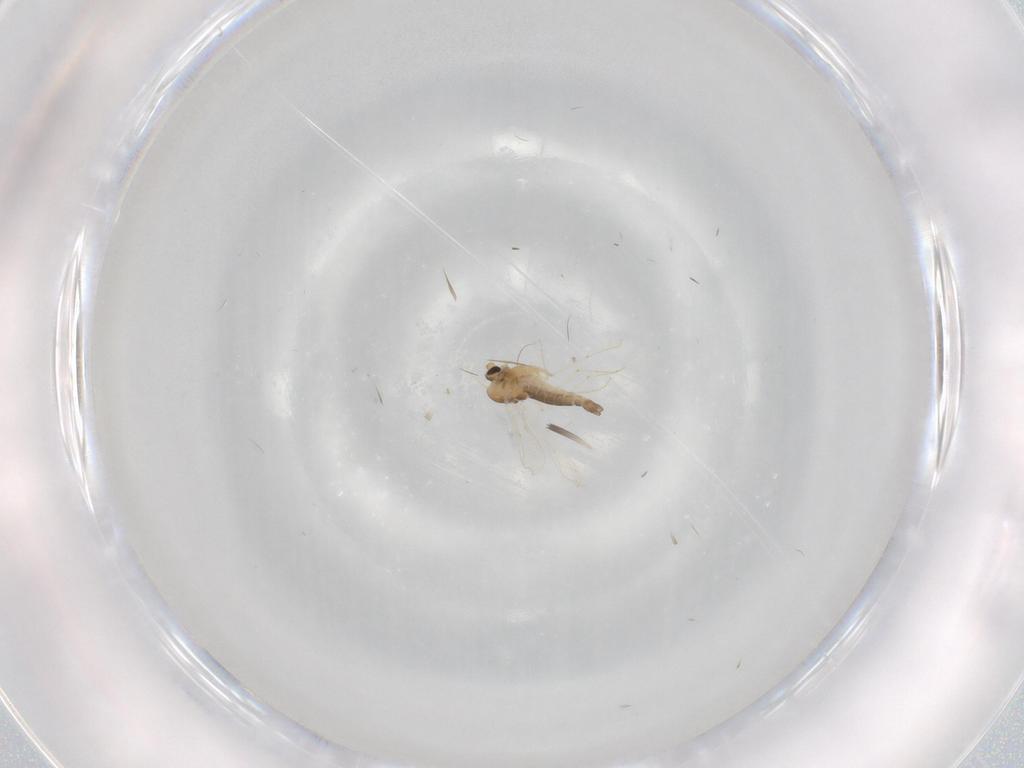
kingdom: Animalia
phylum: Arthropoda
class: Insecta
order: Diptera
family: Chironomidae
